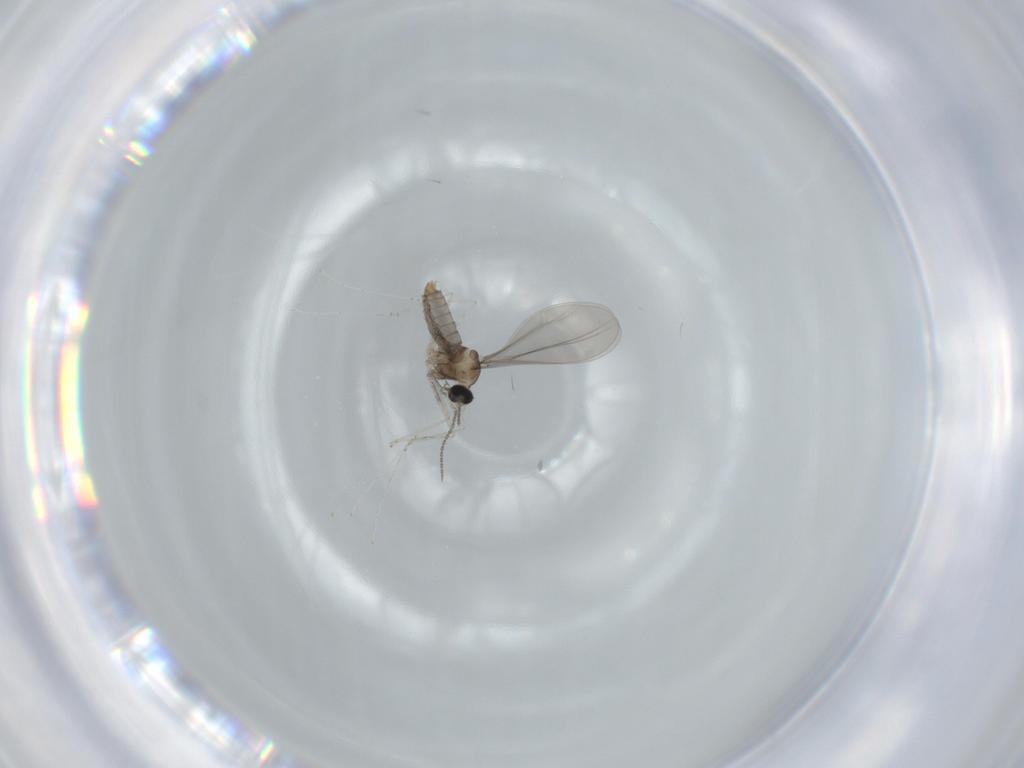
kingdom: Animalia
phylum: Arthropoda
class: Insecta
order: Diptera
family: Cecidomyiidae
